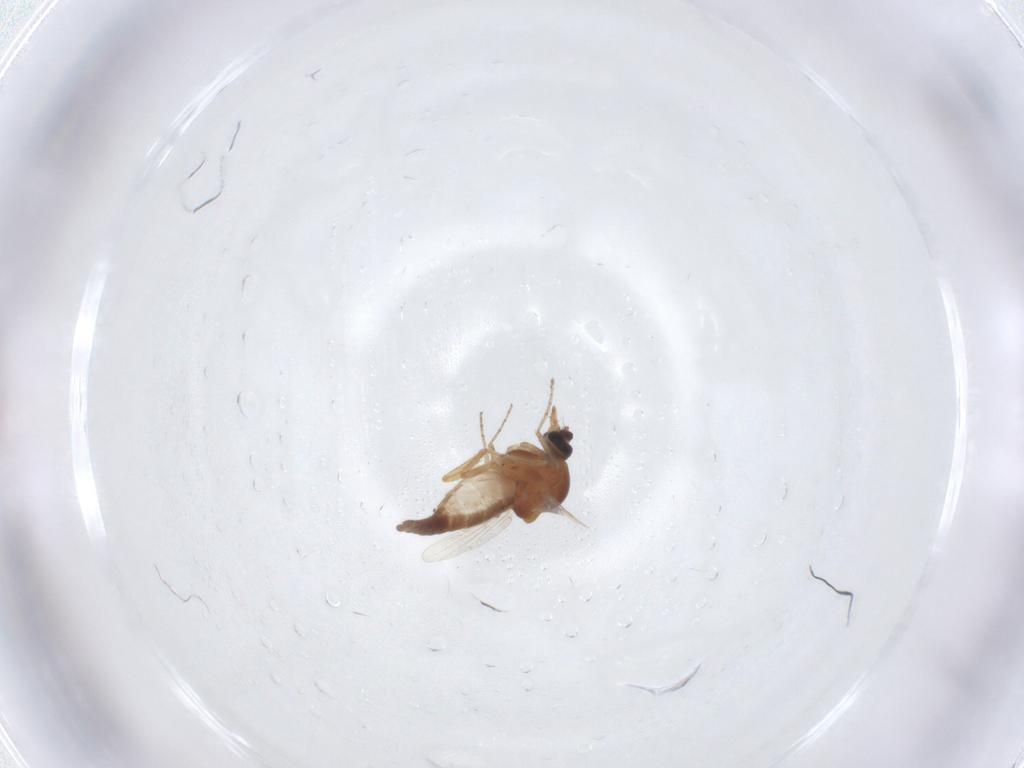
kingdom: Animalia
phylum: Arthropoda
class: Insecta
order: Diptera
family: Ceratopogonidae
